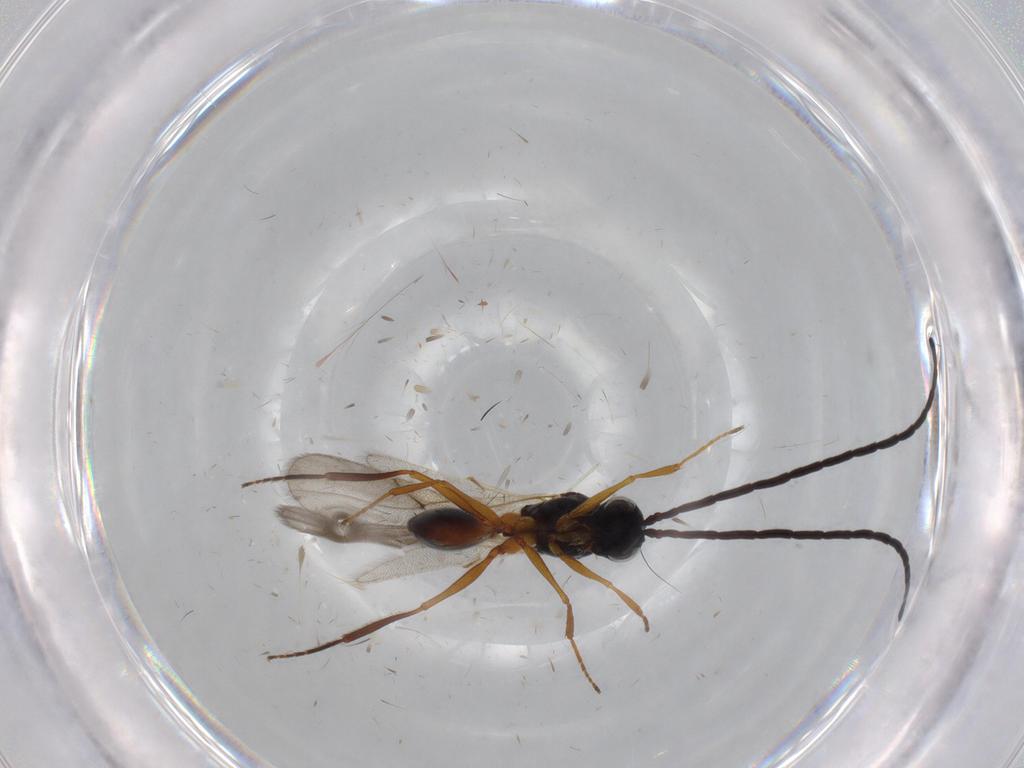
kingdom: Animalia
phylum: Arthropoda
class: Insecta
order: Hymenoptera
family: Figitidae
